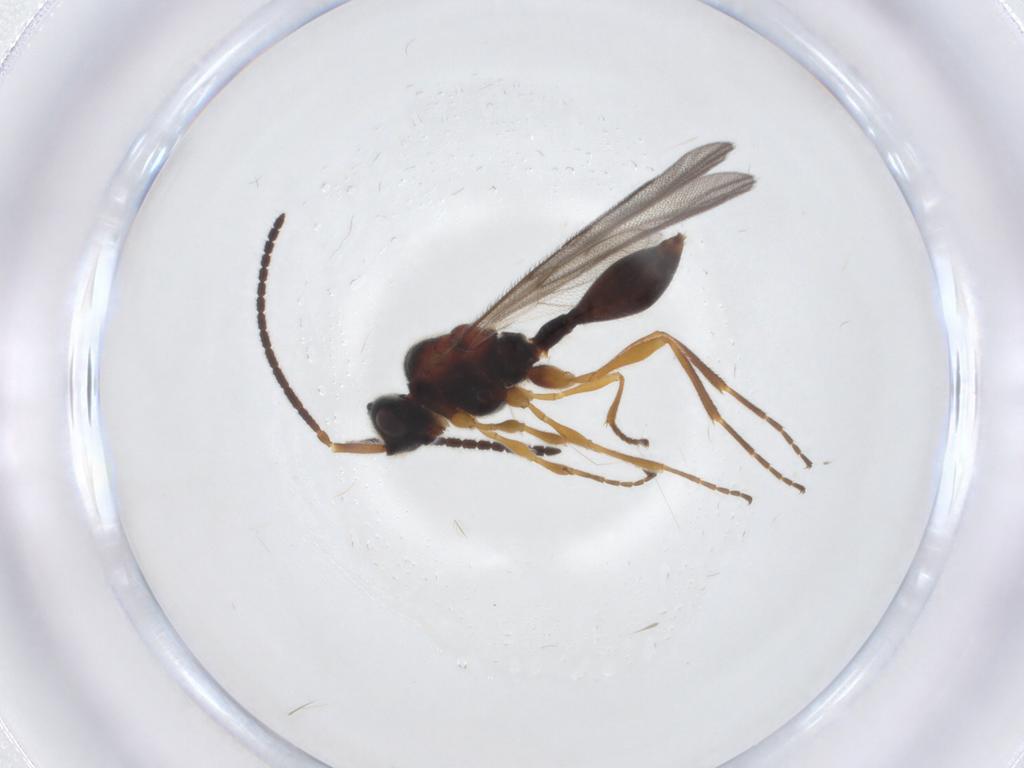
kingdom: Animalia
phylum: Arthropoda
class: Insecta
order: Hymenoptera
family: Diapriidae
